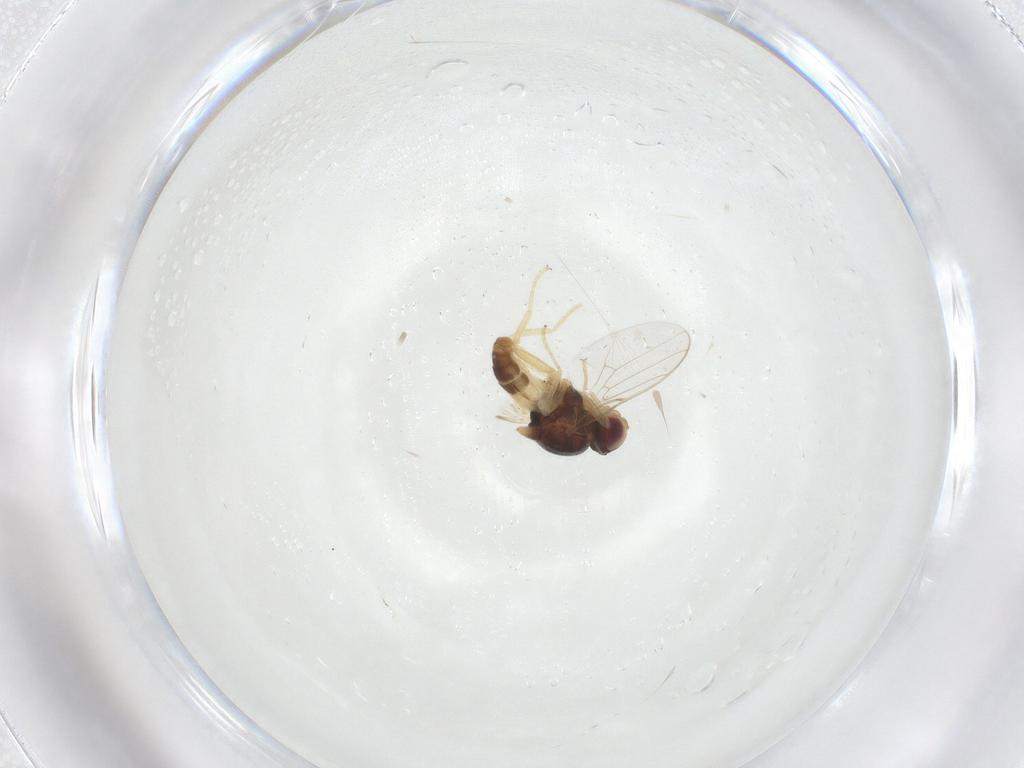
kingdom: Animalia
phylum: Arthropoda
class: Insecta
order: Diptera
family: Chloropidae
